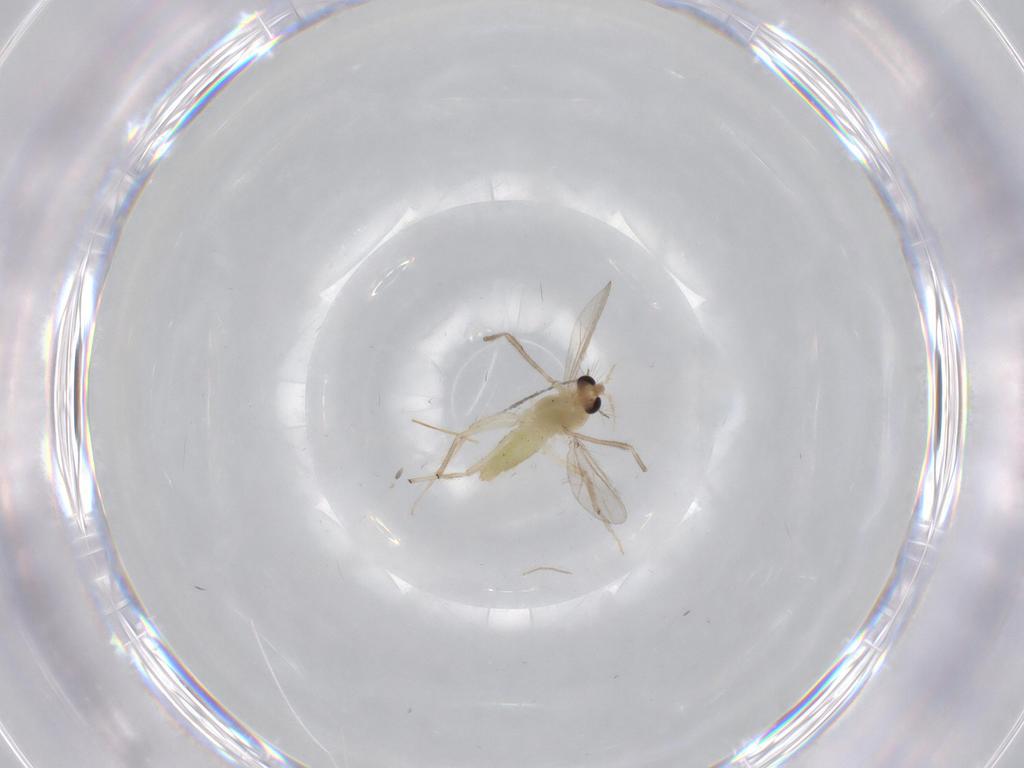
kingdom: Animalia
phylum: Arthropoda
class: Insecta
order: Diptera
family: Chironomidae
